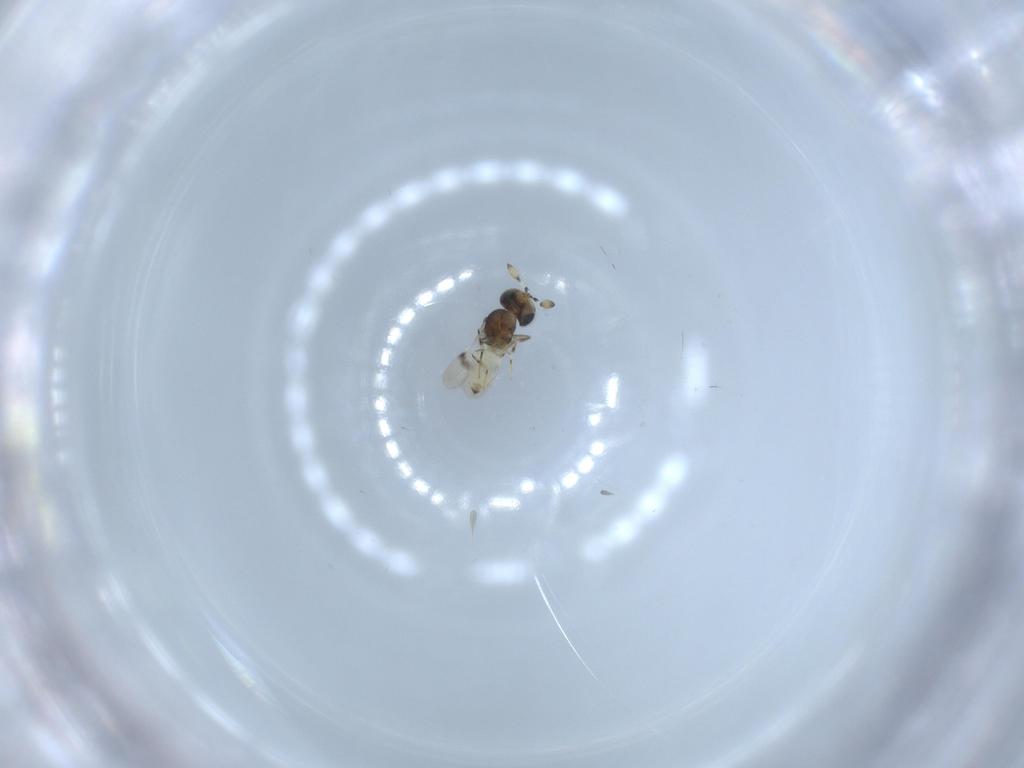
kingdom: Animalia
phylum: Arthropoda
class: Insecta
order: Hymenoptera
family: Scelionidae
